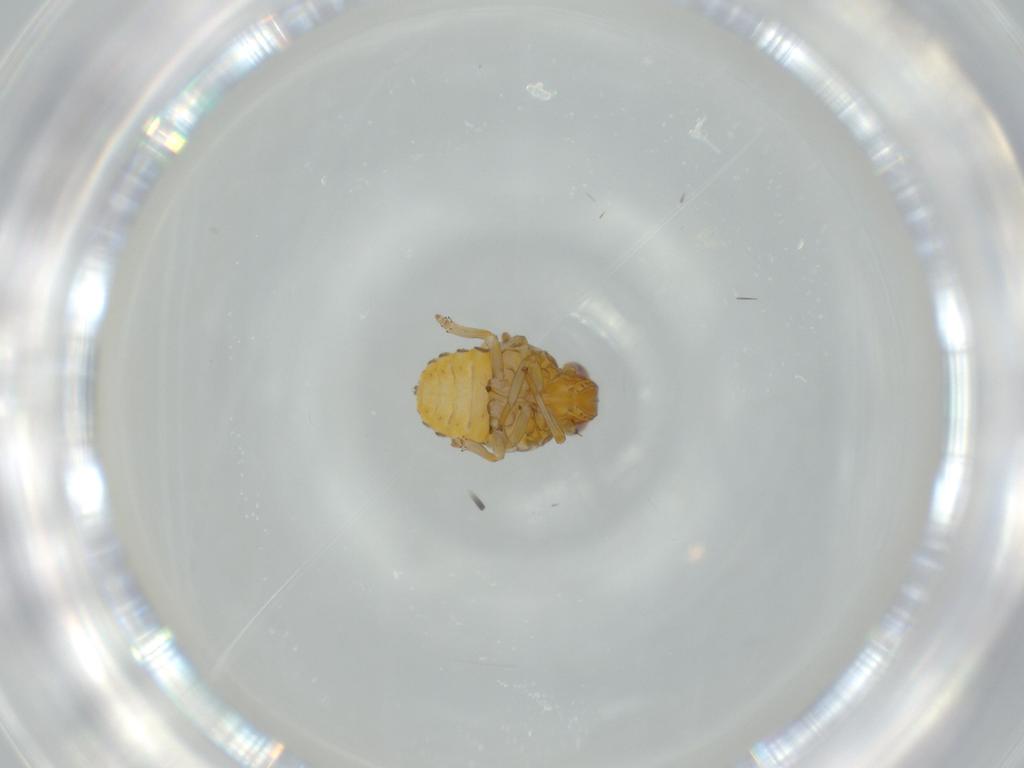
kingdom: Animalia
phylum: Arthropoda
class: Insecta
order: Hemiptera
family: Issidae
